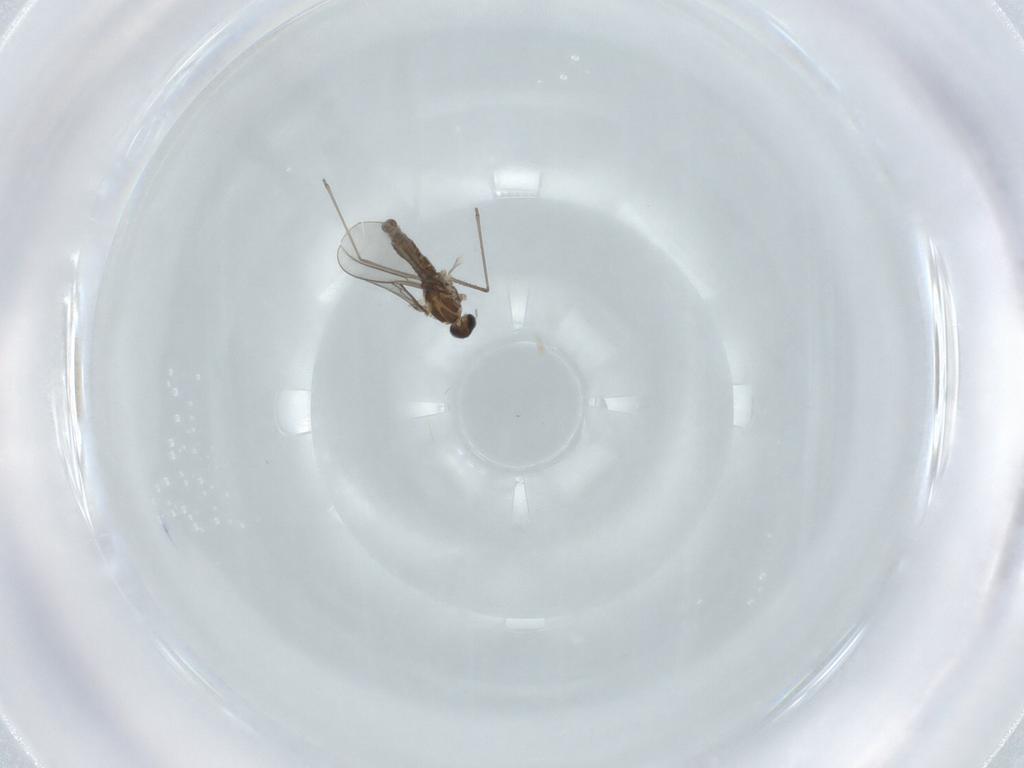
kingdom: Animalia
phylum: Arthropoda
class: Insecta
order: Diptera
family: Cecidomyiidae
